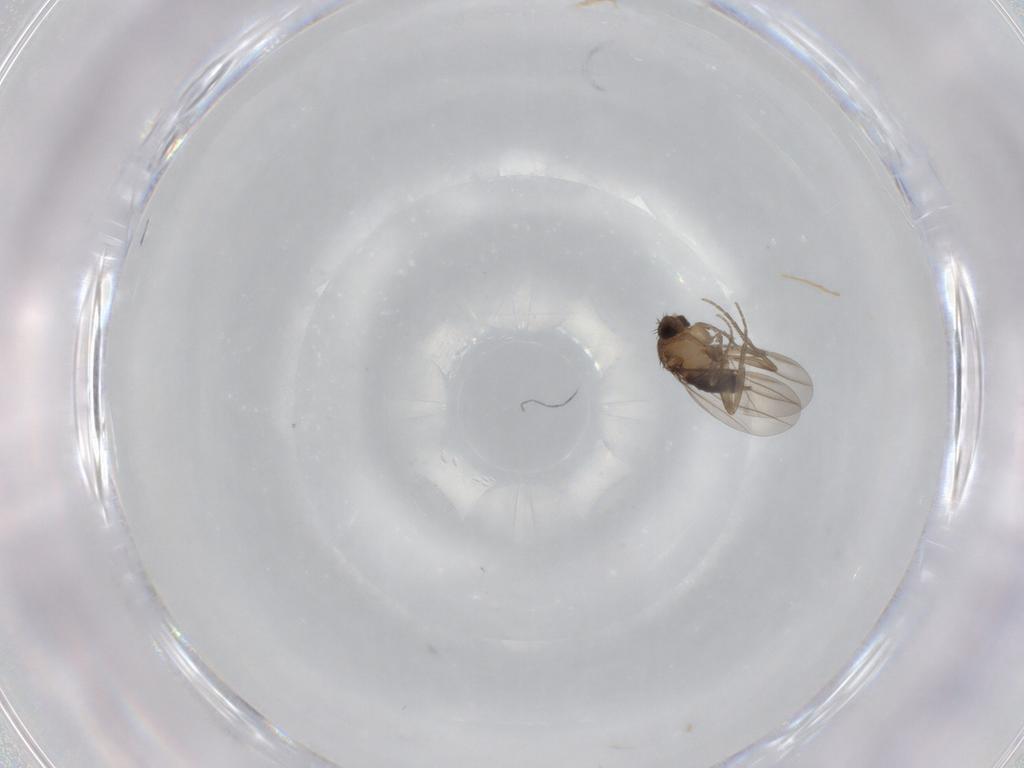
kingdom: Animalia
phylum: Arthropoda
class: Insecta
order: Diptera
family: Phoridae
